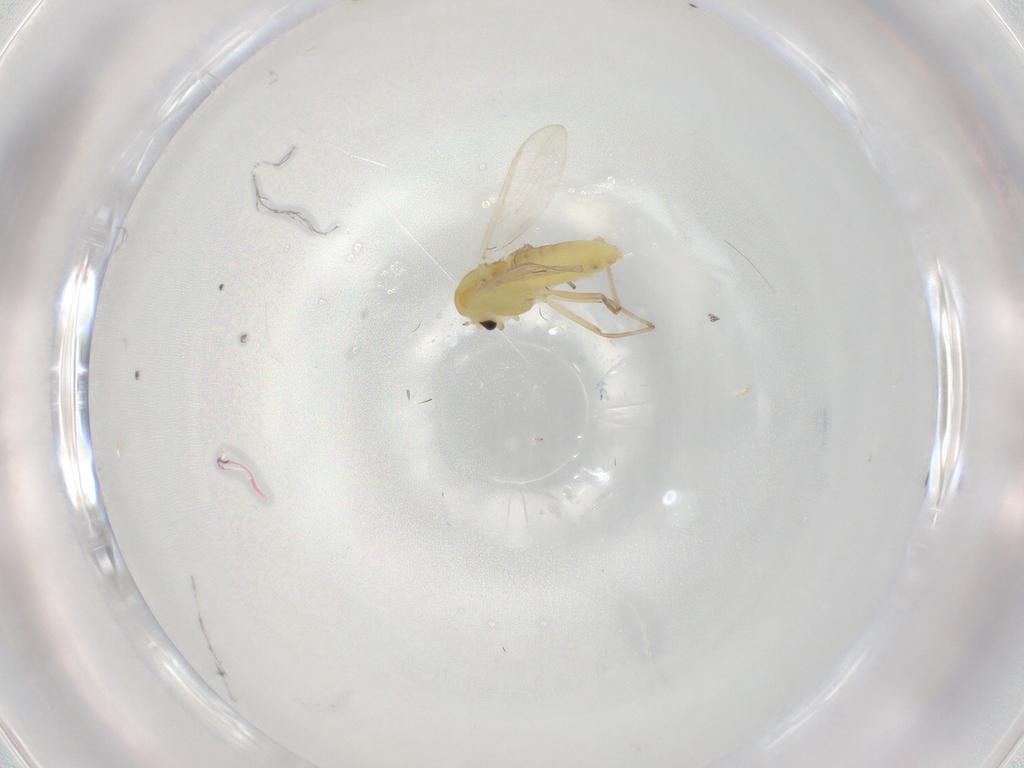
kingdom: Animalia
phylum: Arthropoda
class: Insecta
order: Diptera
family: Chironomidae
